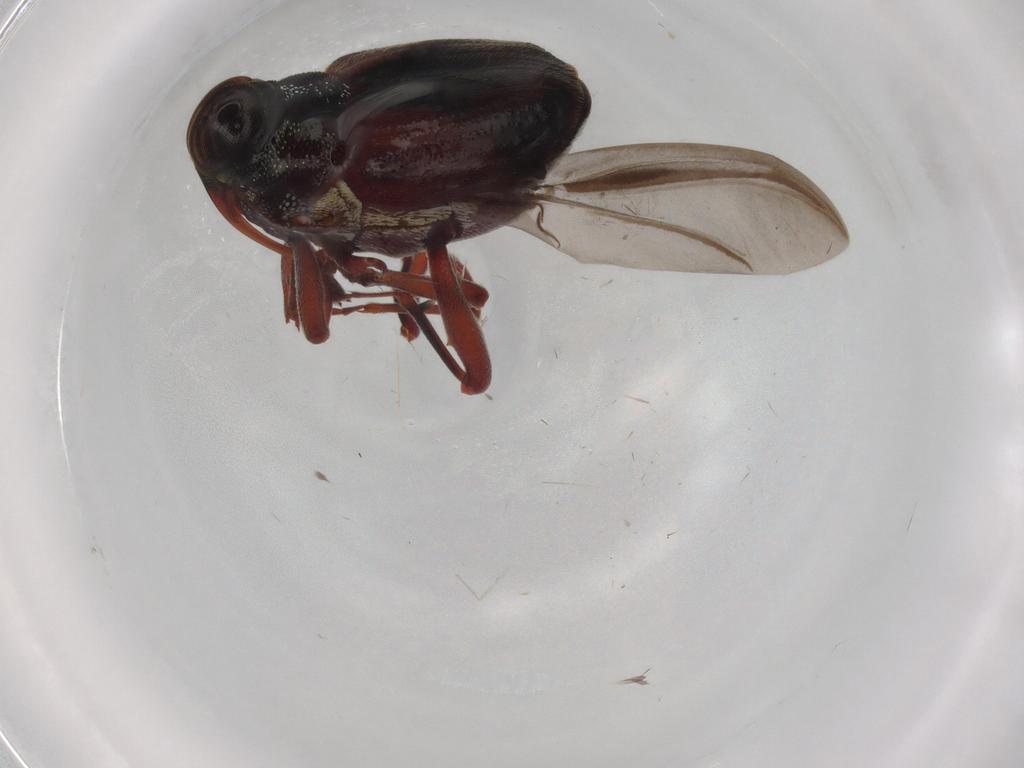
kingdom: Animalia
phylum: Arthropoda
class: Insecta
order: Coleoptera
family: Curculionidae
